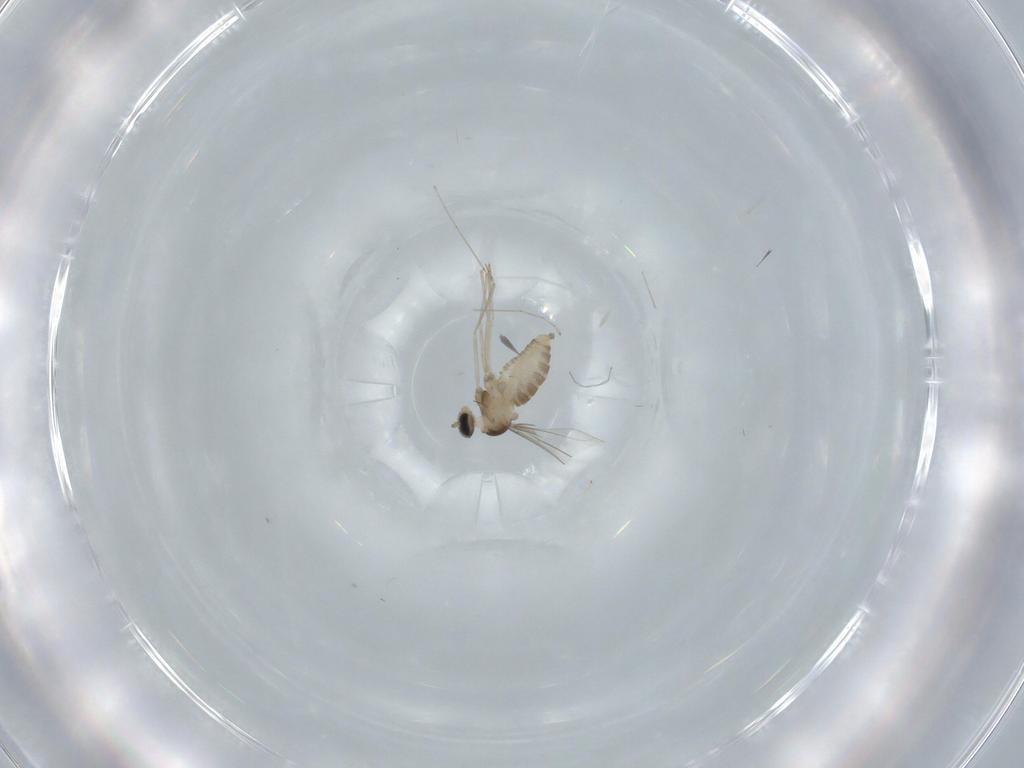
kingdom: Animalia
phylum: Arthropoda
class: Insecta
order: Diptera
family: Cecidomyiidae
